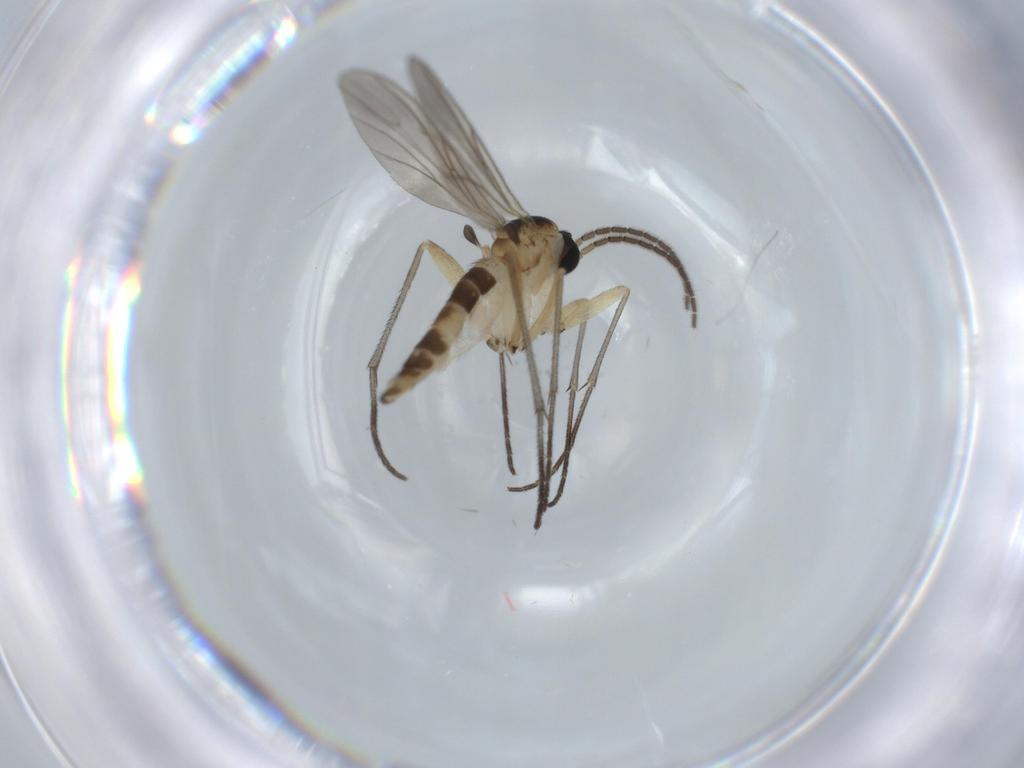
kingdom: Animalia
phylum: Arthropoda
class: Insecta
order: Diptera
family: Sciaridae
